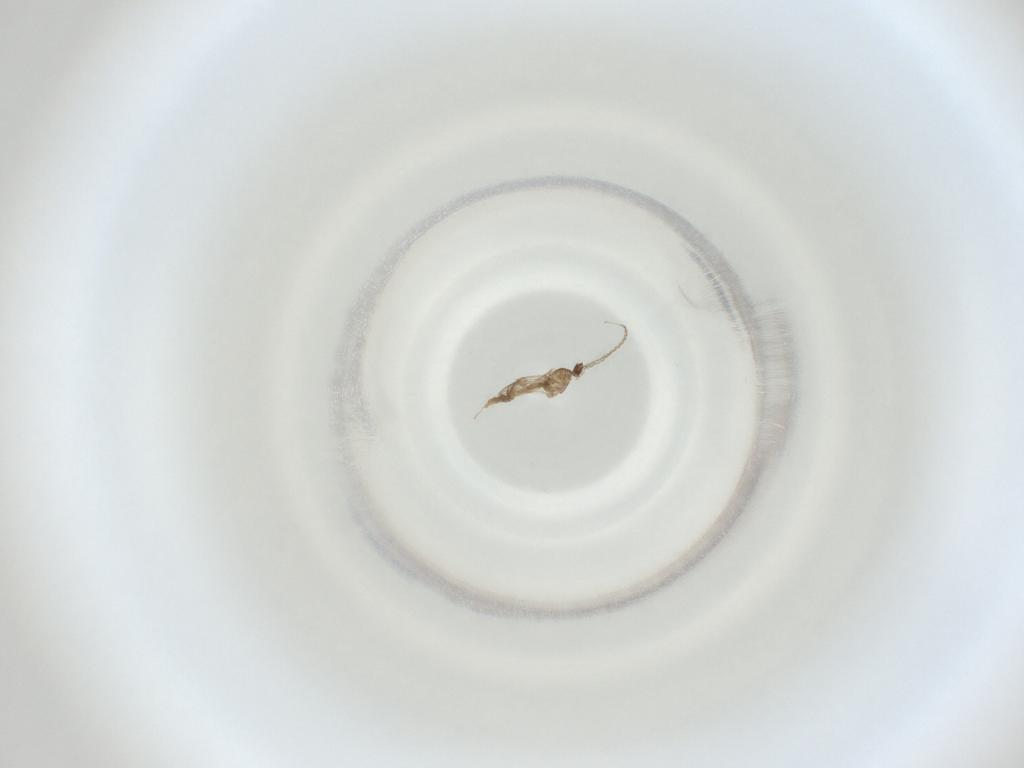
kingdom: Animalia
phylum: Arthropoda
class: Insecta
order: Diptera
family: Cecidomyiidae
